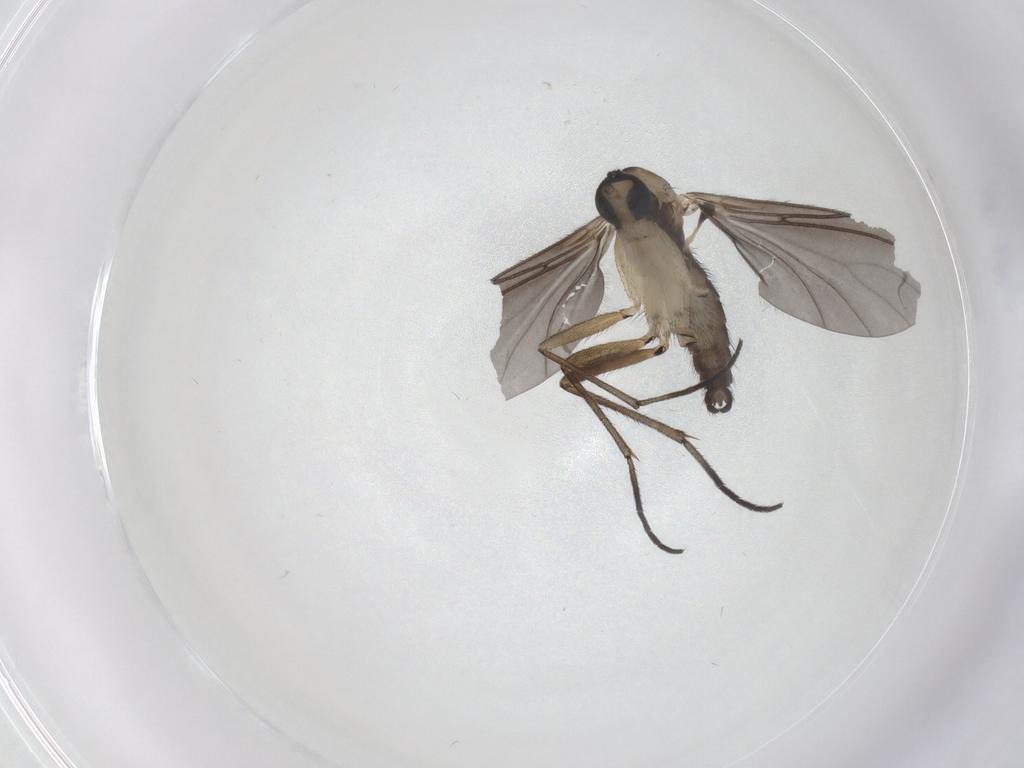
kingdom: Animalia
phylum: Arthropoda
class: Insecta
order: Diptera
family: Sciaridae
